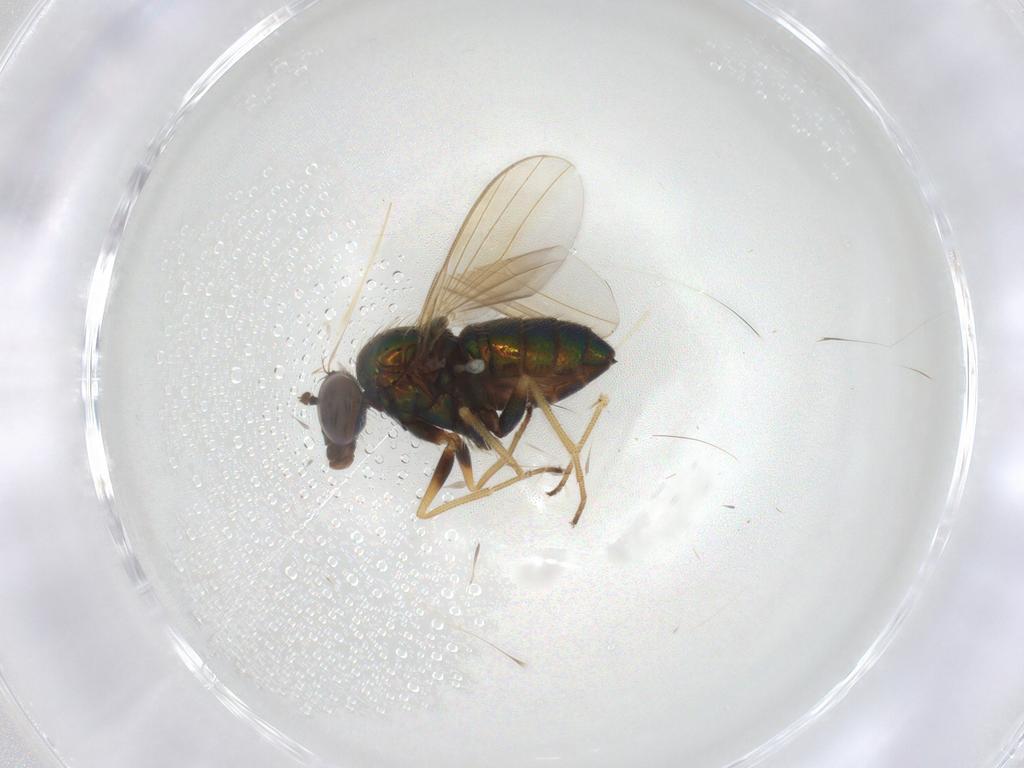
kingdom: Animalia
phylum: Arthropoda
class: Insecta
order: Diptera
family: Dolichopodidae
